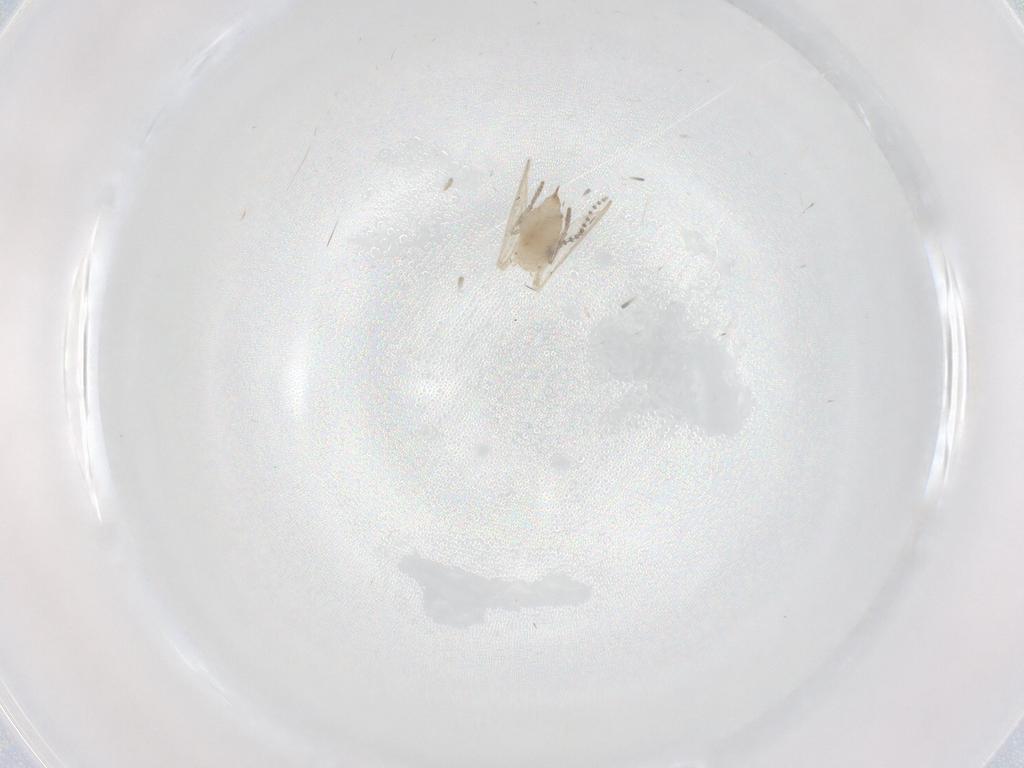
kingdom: Animalia
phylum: Arthropoda
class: Insecta
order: Diptera
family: Psychodidae
